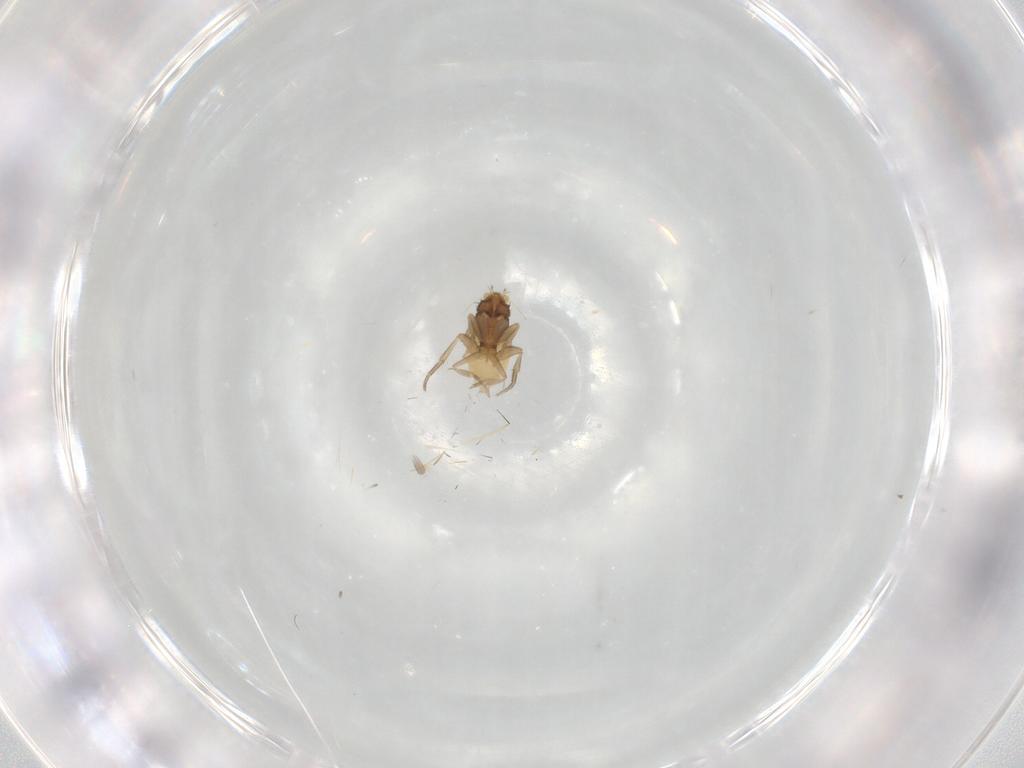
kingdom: Animalia
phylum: Arthropoda
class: Insecta
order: Diptera
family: Phoridae
